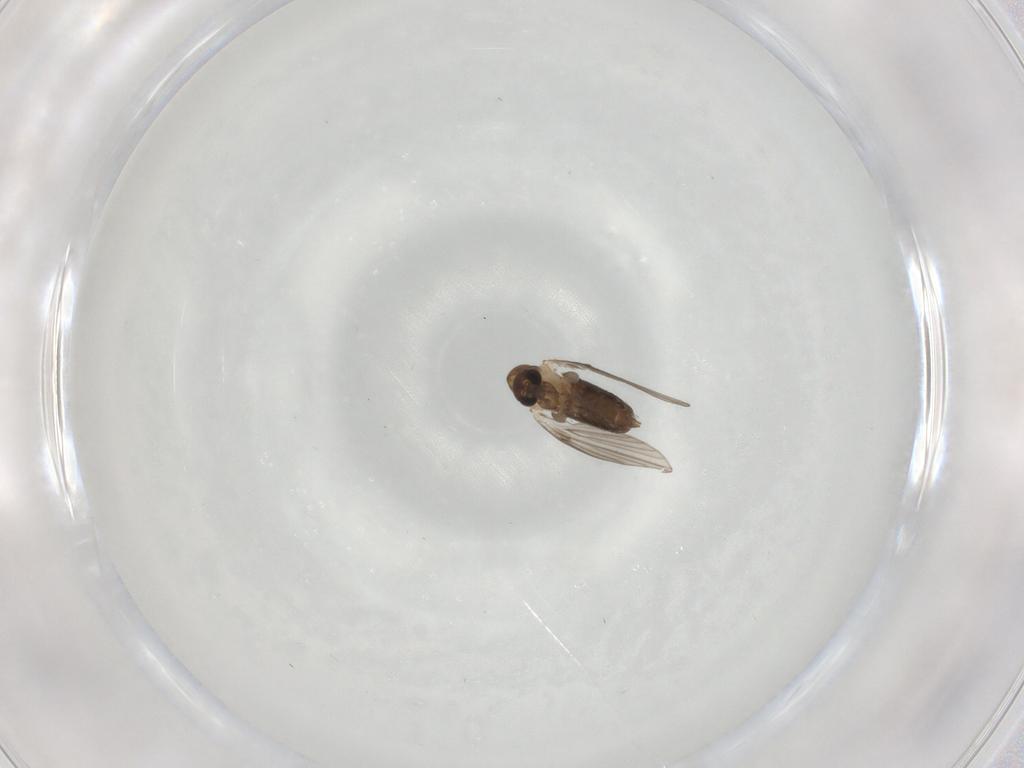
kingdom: Animalia
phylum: Arthropoda
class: Insecta
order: Diptera
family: Psychodidae
